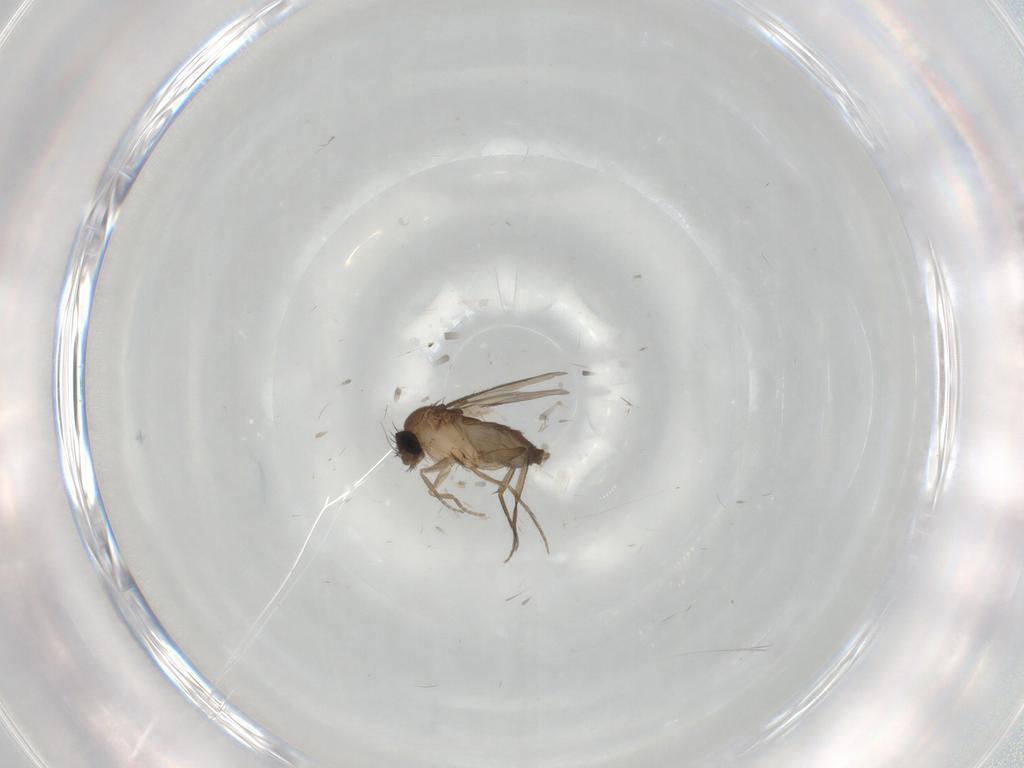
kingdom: Animalia
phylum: Arthropoda
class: Insecta
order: Diptera
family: Phoridae
